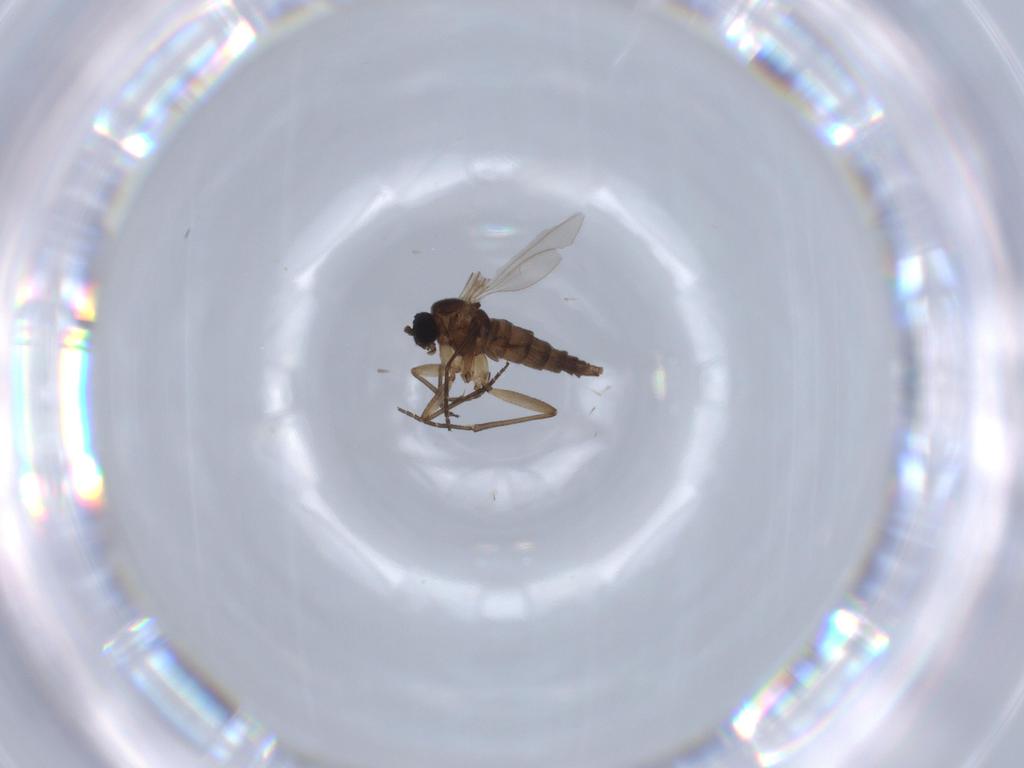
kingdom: Animalia
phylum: Arthropoda
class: Insecta
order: Diptera
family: Sciaridae
